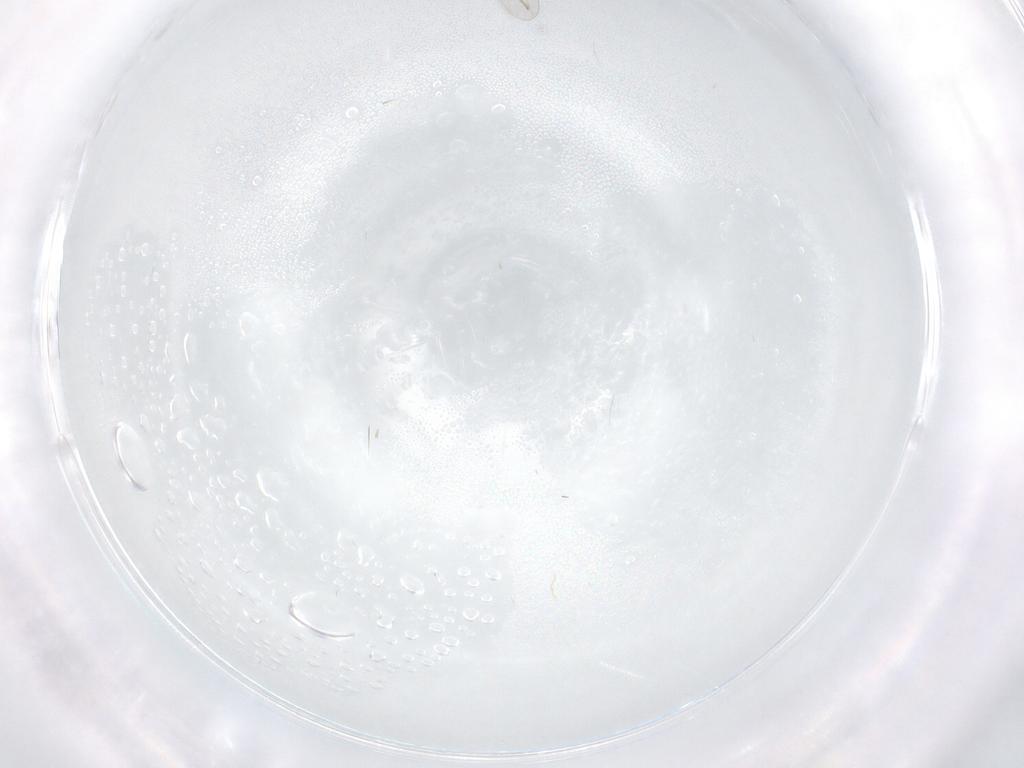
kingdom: Animalia
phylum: Arthropoda
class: Insecta
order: Diptera
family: Ceratopogonidae
